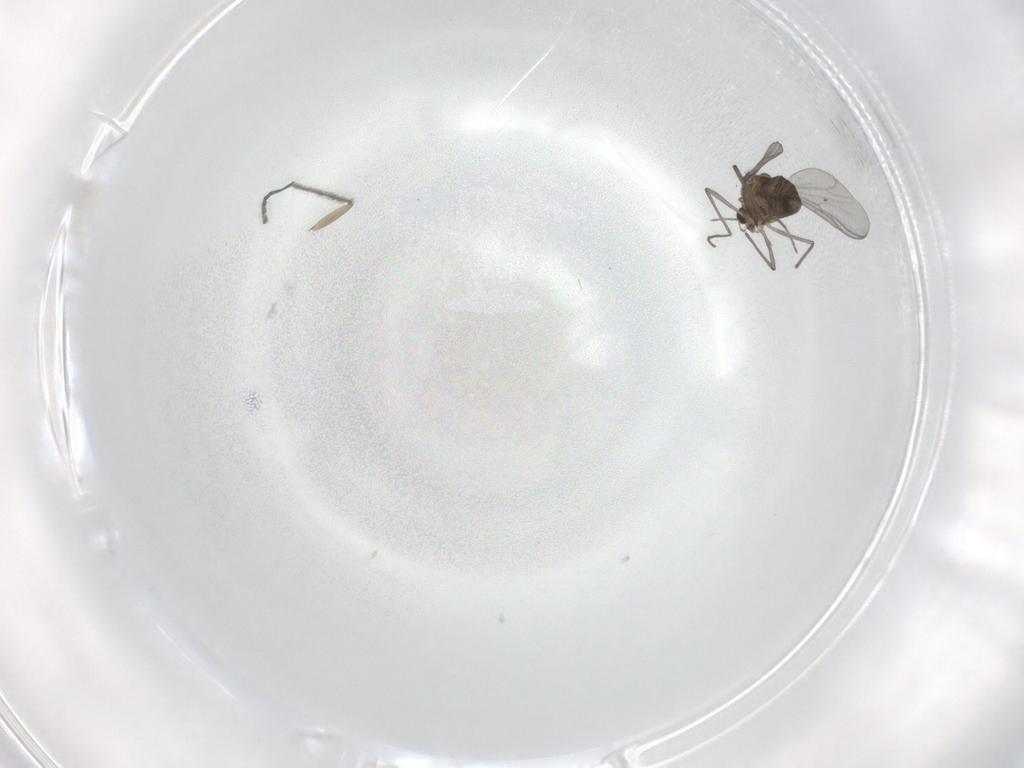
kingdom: Animalia
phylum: Arthropoda
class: Insecta
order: Diptera
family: Chironomidae
